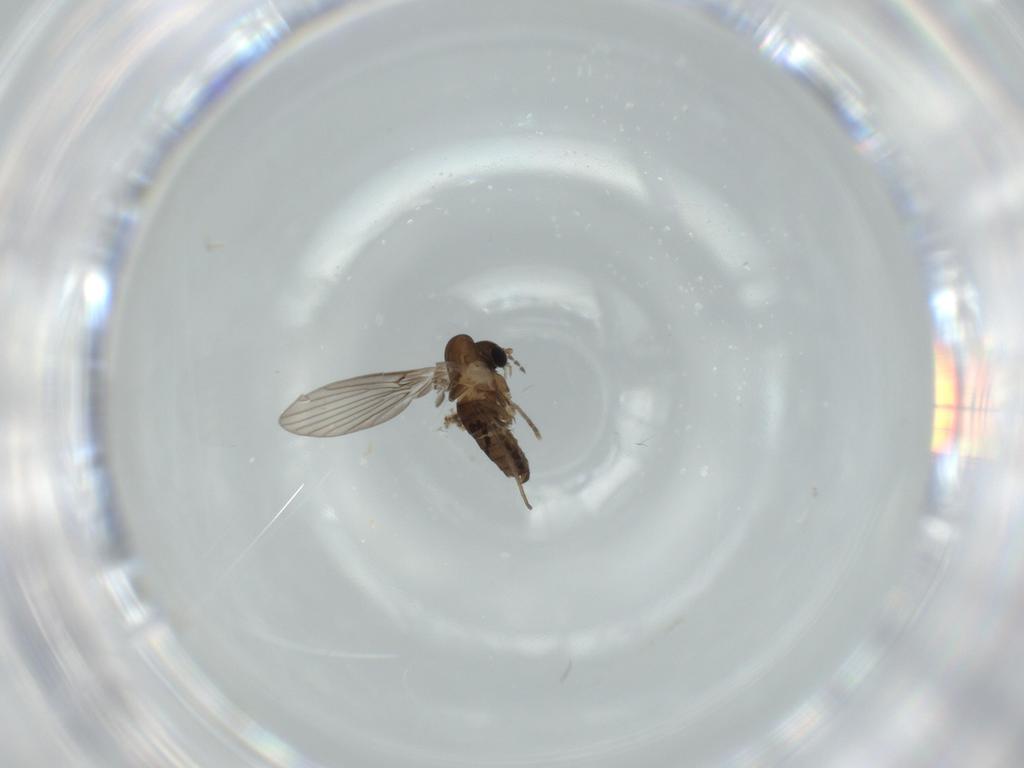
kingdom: Animalia
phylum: Arthropoda
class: Insecta
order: Diptera
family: Psychodidae
